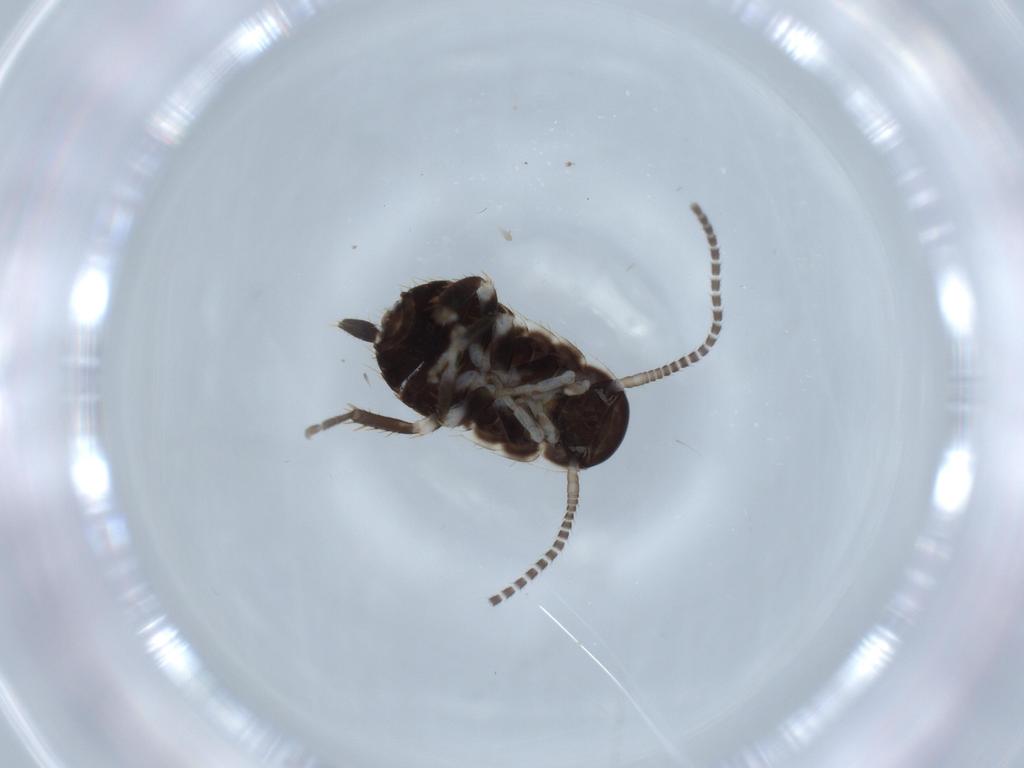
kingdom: Animalia
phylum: Arthropoda
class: Insecta
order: Blattodea
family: Ectobiidae
